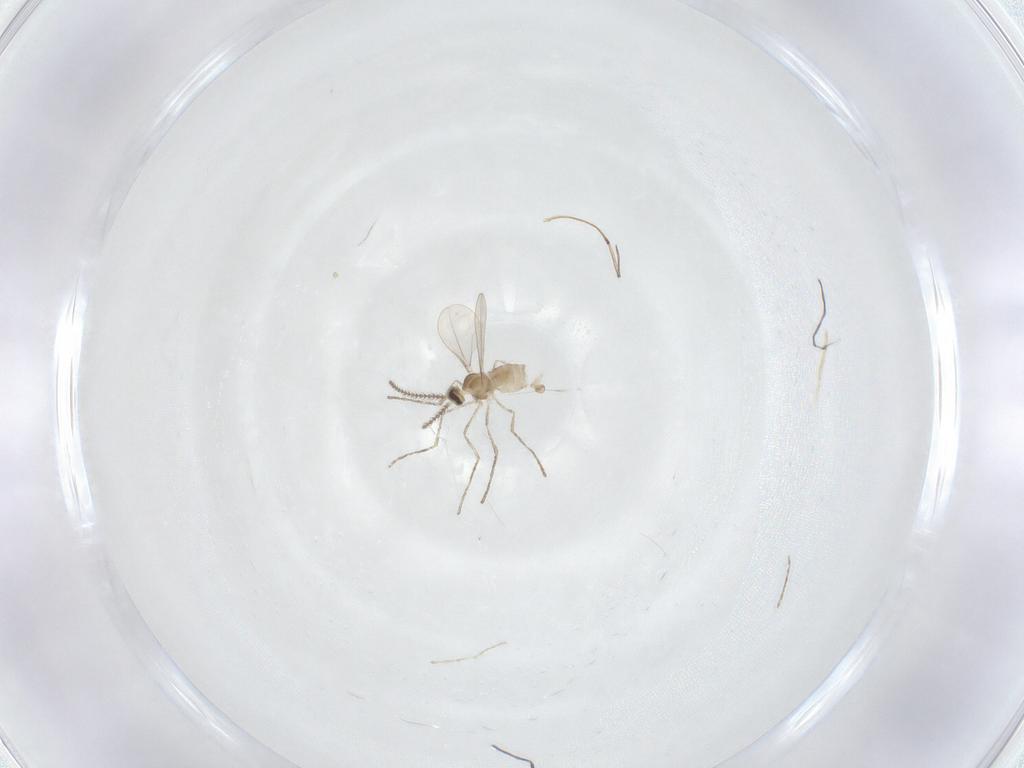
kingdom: Animalia
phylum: Arthropoda
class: Insecta
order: Diptera
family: Cecidomyiidae
